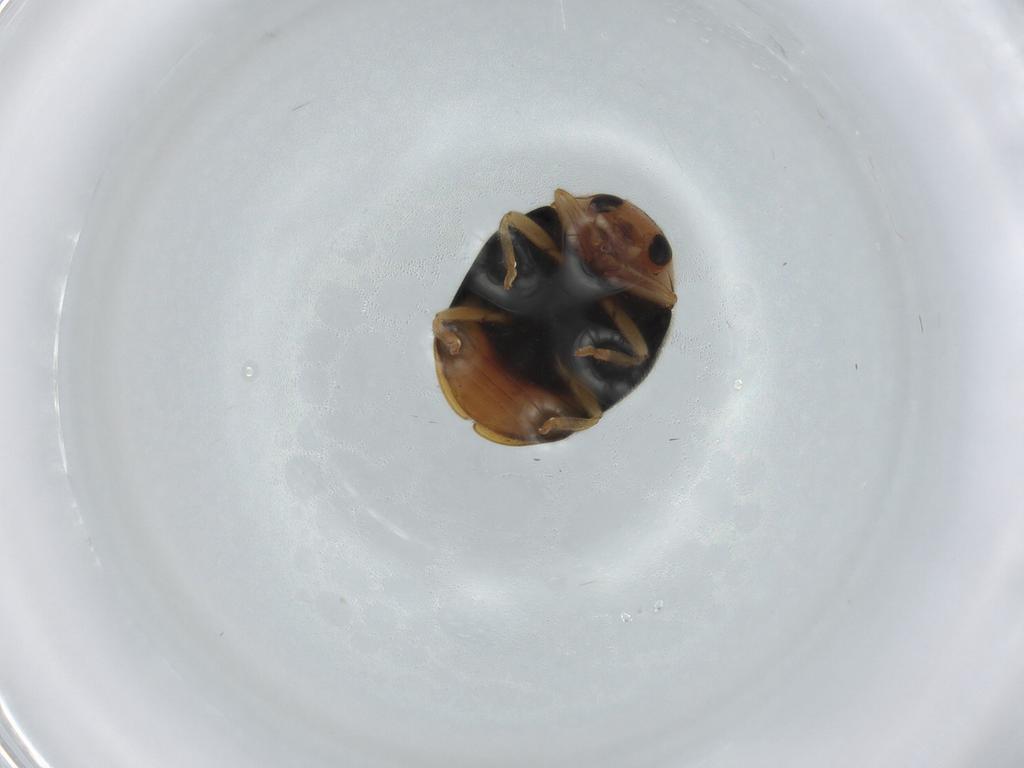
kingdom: Animalia
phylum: Arthropoda
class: Insecta
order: Coleoptera
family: Coccinellidae
